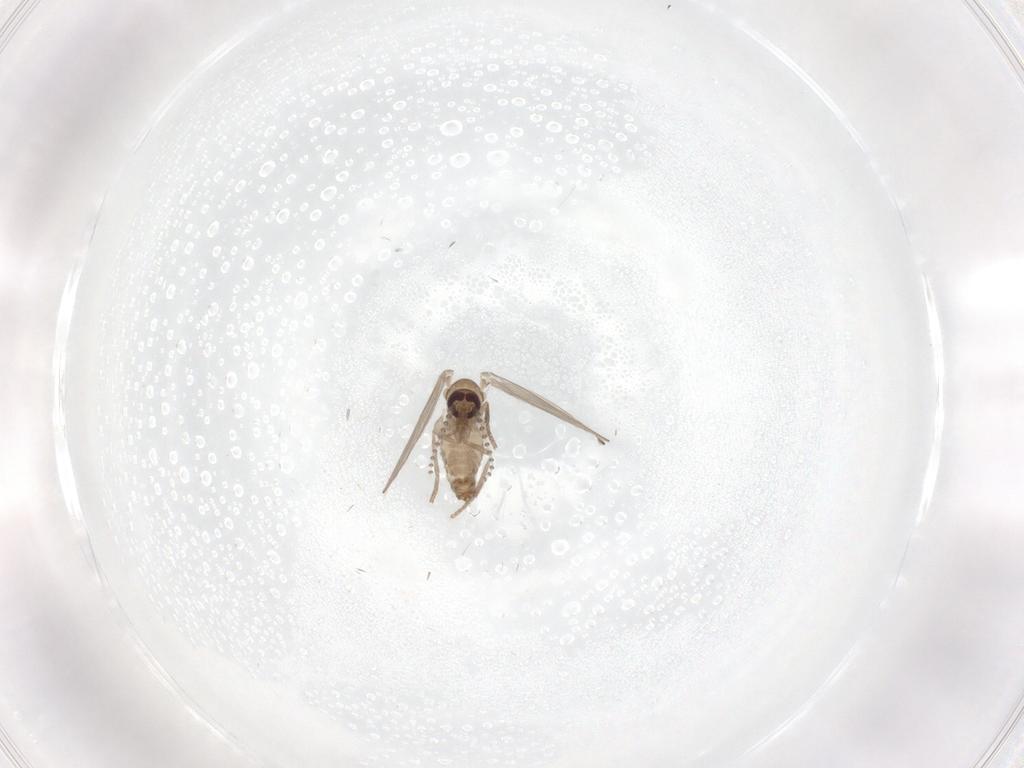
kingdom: Animalia
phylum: Arthropoda
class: Insecta
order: Diptera
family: Psychodidae
